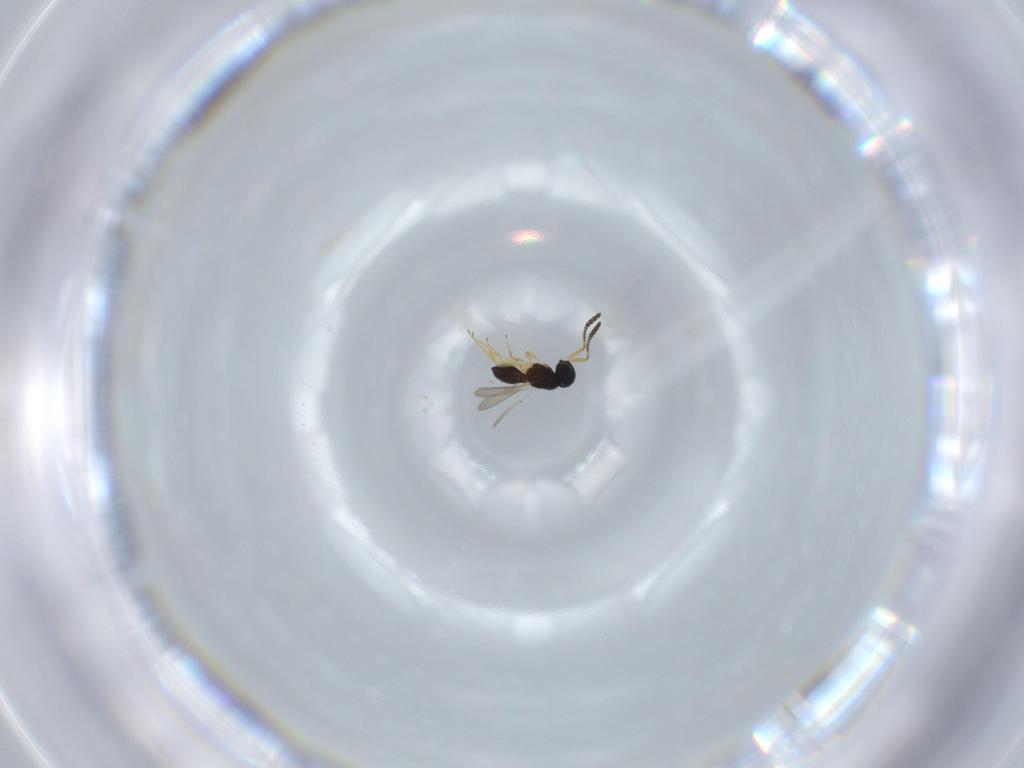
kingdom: Animalia
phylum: Arthropoda
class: Insecta
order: Hymenoptera
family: Scelionidae
